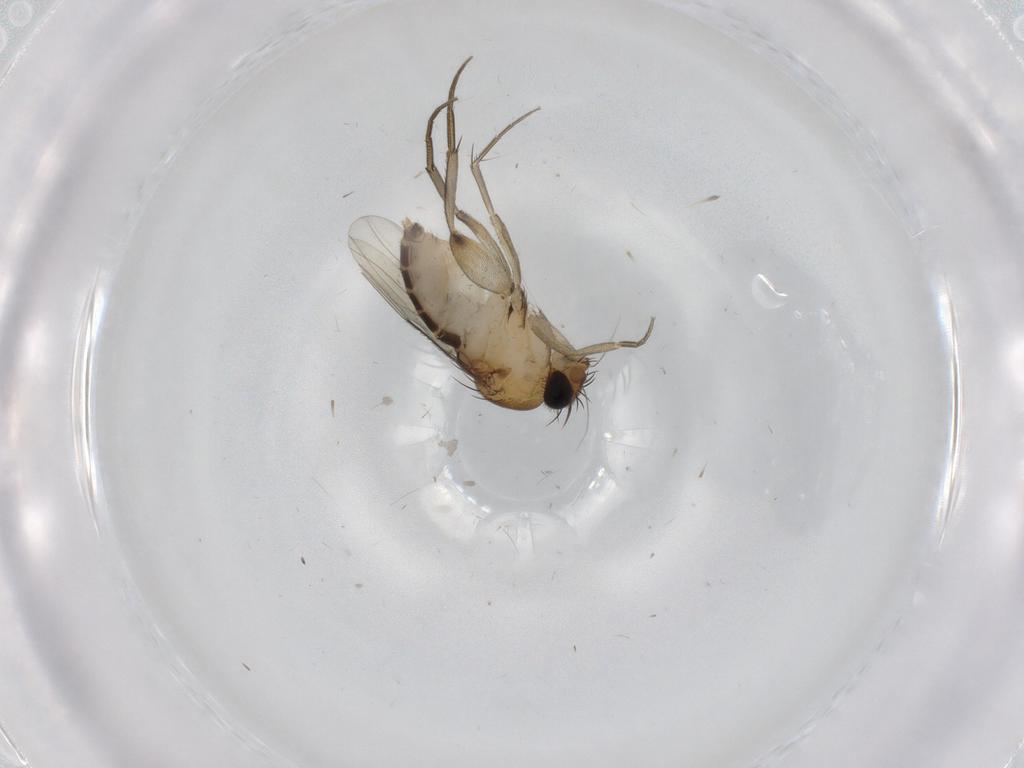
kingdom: Animalia
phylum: Arthropoda
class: Insecta
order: Diptera
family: Phoridae
